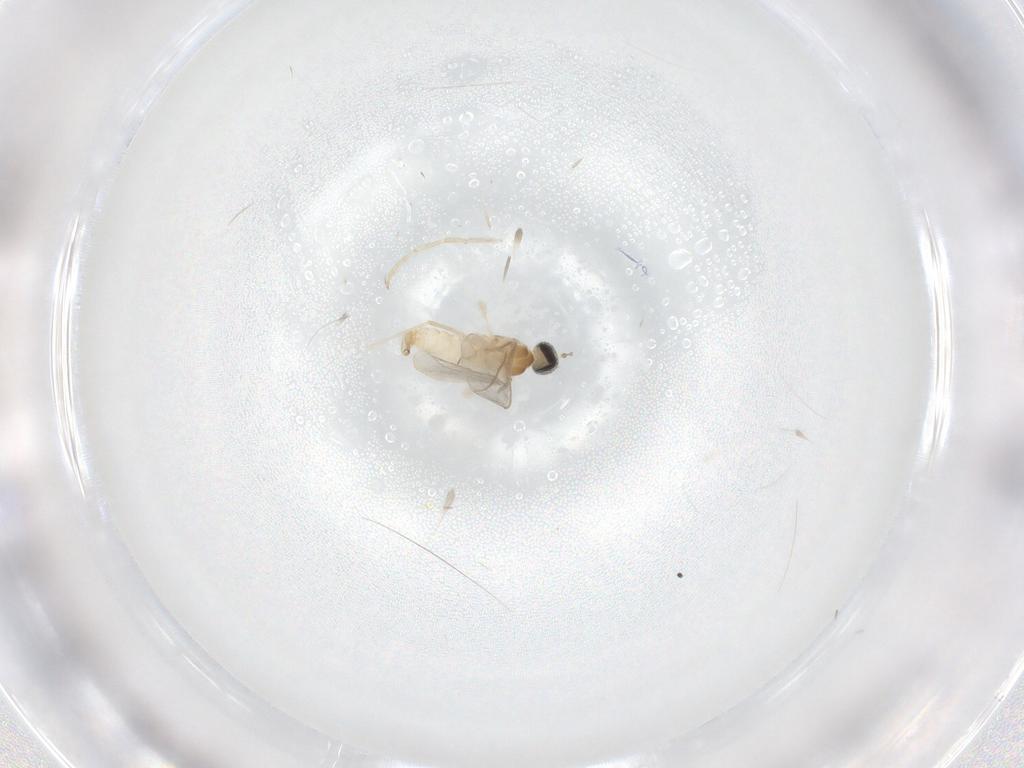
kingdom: Animalia
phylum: Arthropoda
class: Insecta
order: Diptera
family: Cecidomyiidae
